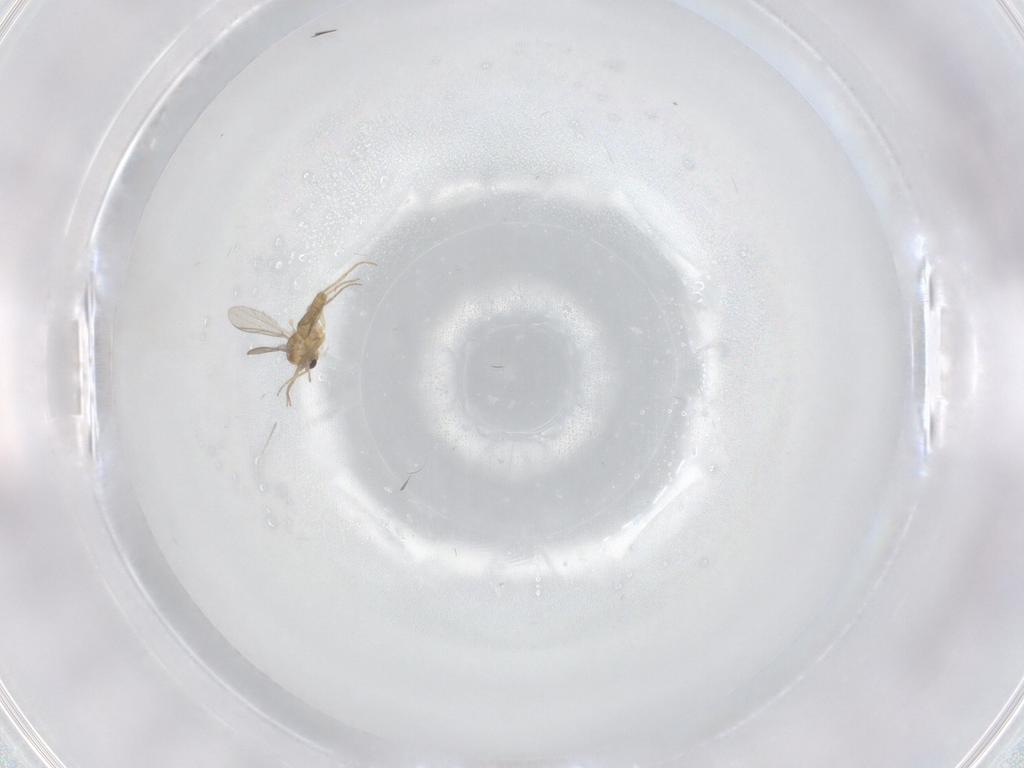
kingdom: Animalia
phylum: Arthropoda
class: Insecta
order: Diptera
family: Chironomidae
